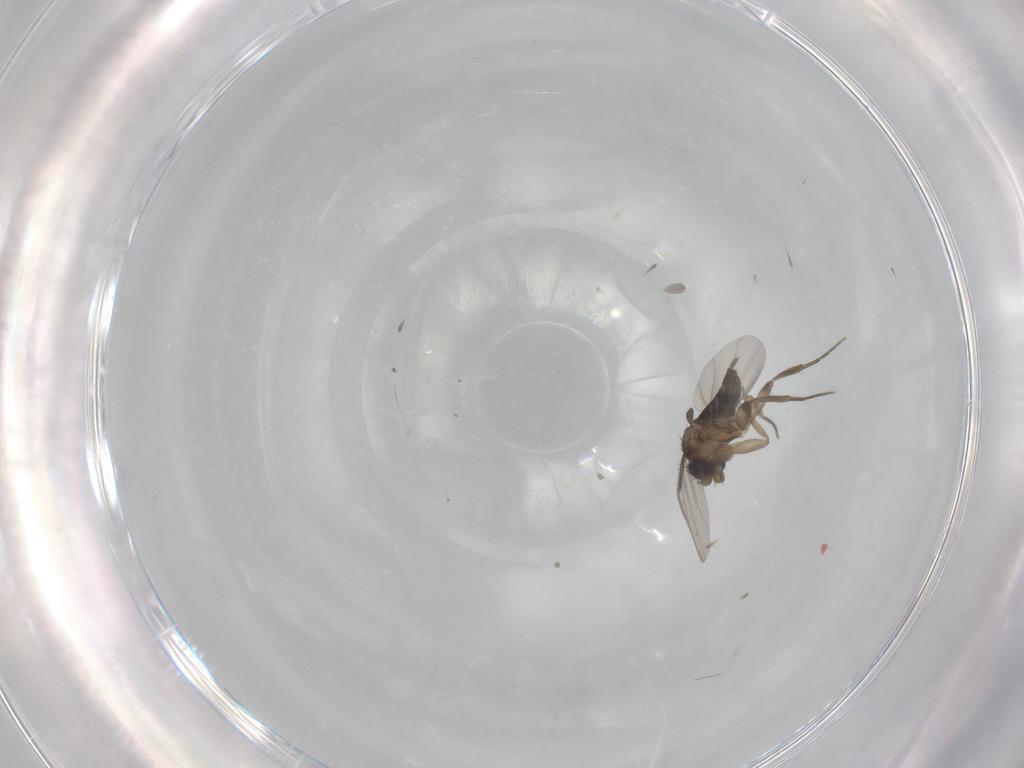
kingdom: Animalia
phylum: Arthropoda
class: Insecta
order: Diptera
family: Phoridae
